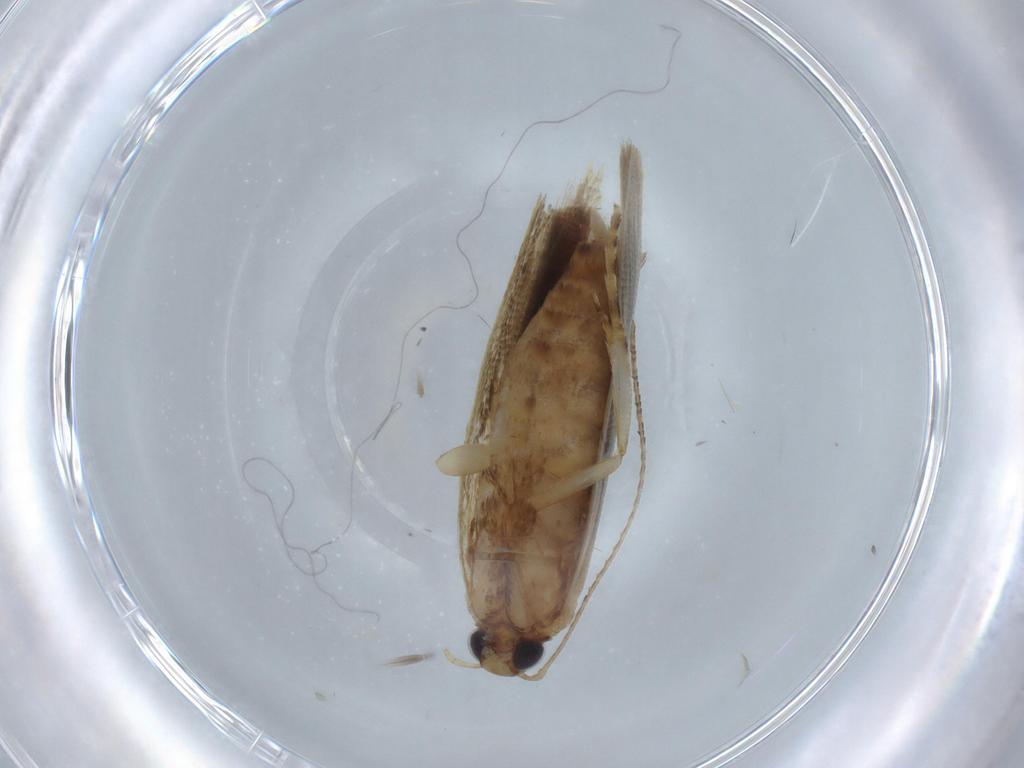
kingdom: Animalia
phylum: Arthropoda
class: Insecta
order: Lepidoptera
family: Gelechiidae
